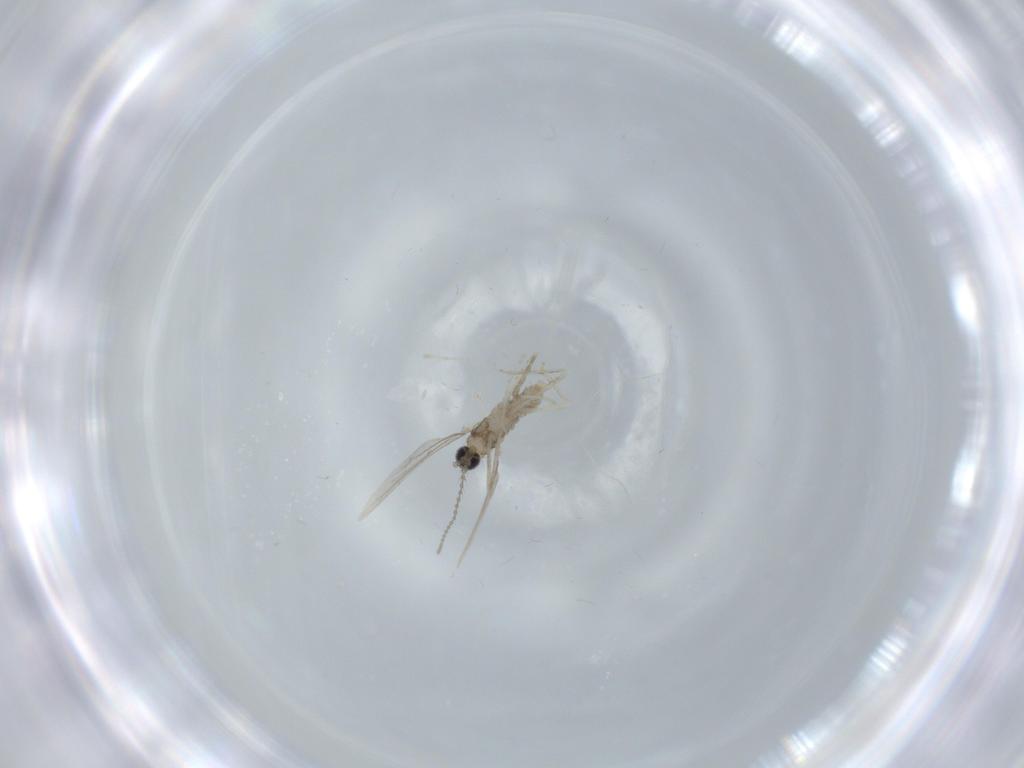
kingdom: Animalia
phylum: Arthropoda
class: Insecta
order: Diptera
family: Cecidomyiidae
